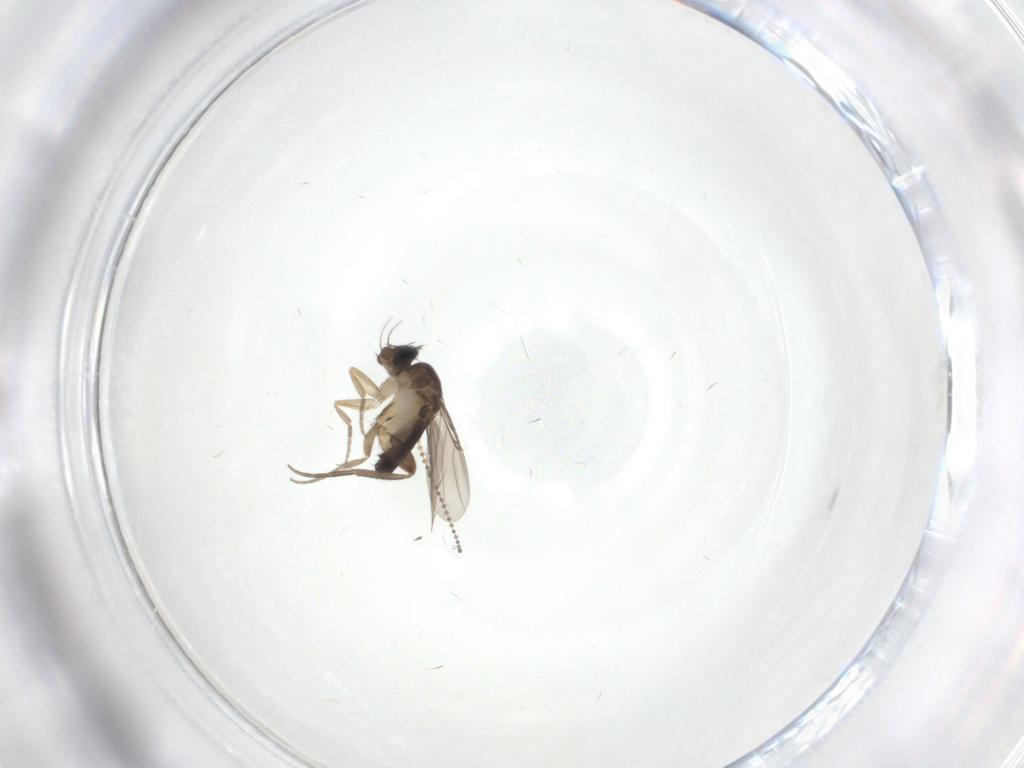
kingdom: Animalia
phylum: Arthropoda
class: Insecta
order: Diptera
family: Phoridae
